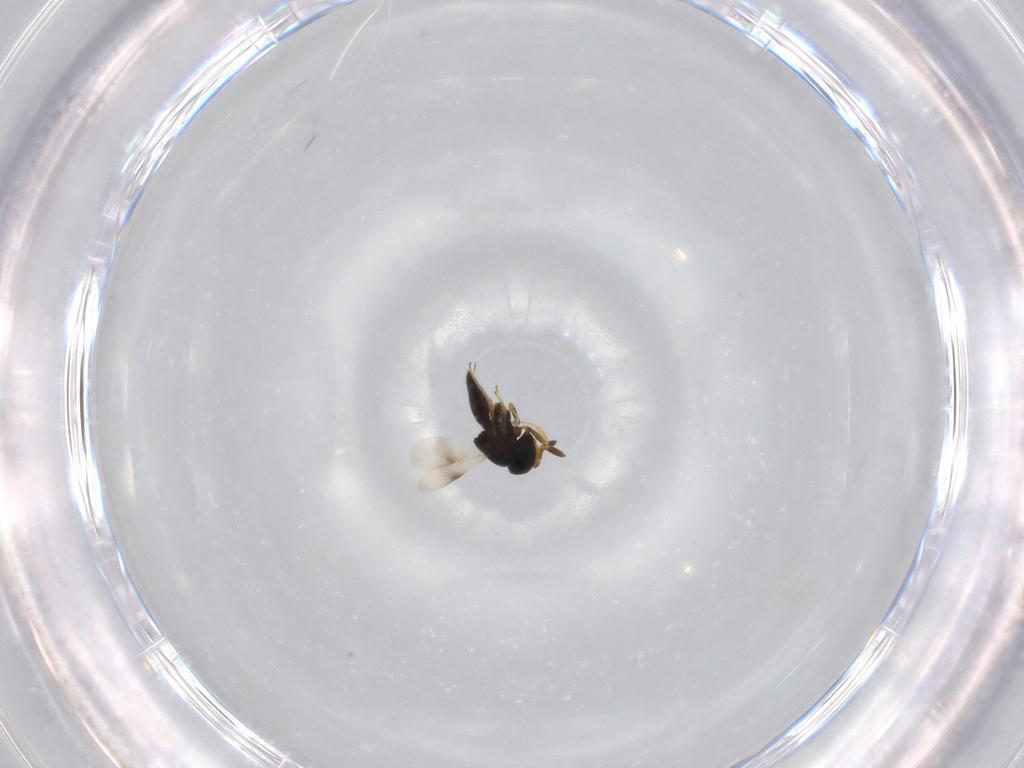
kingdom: Animalia
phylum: Arthropoda
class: Insecta
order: Hymenoptera
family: Scelionidae
